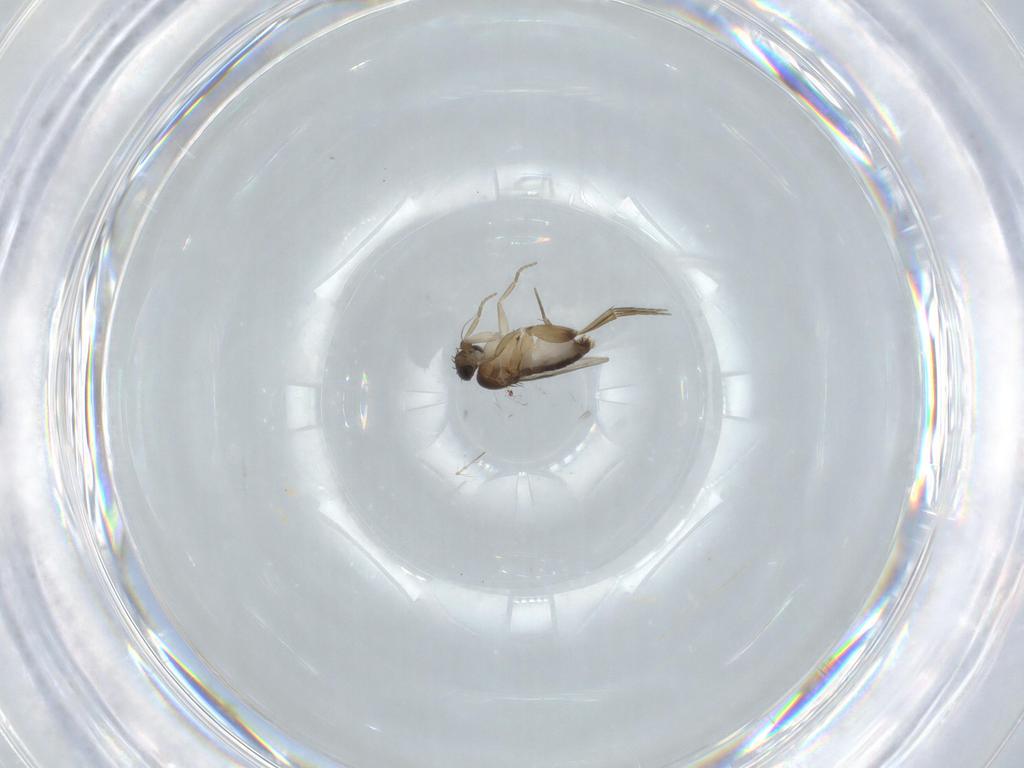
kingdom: Animalia
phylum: Arthropoda
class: Insecta
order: Diptera
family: Chironomidae
